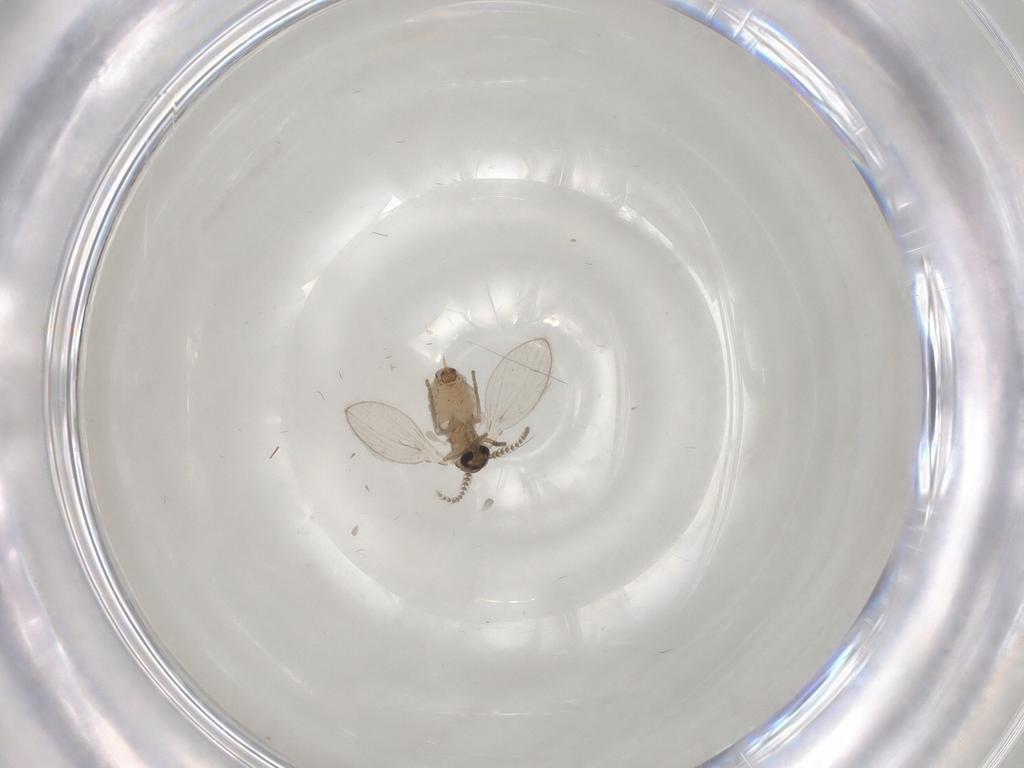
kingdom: Animalia
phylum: Arthropoda
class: Insecta
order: Diptera
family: Psychodidae
